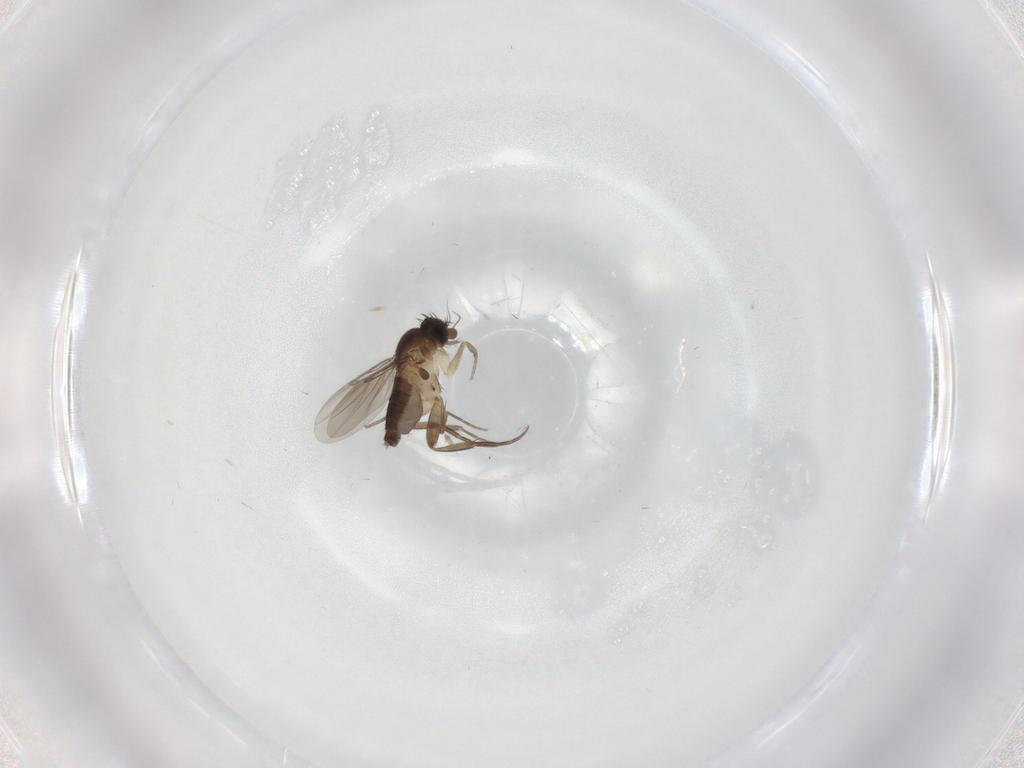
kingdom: Animalia
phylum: Arthropoda
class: Insecta
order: Diptera
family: Phoridae
